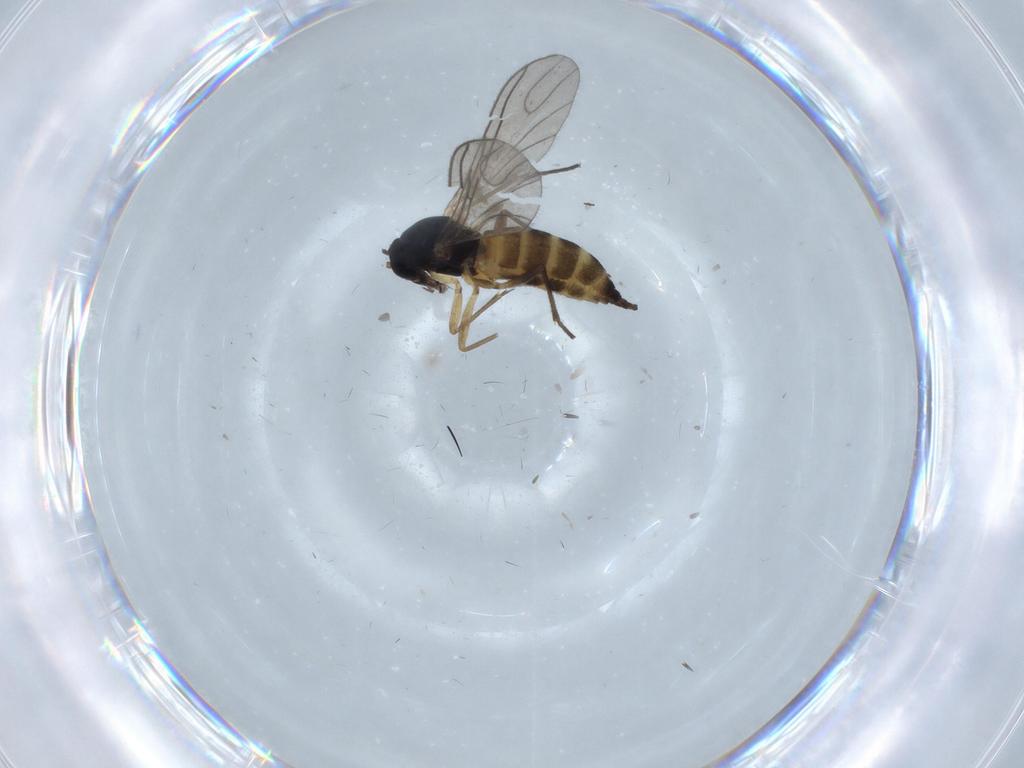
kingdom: Animalia
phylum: Arthropoda
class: Insecta
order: Diptera
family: Sciaridae
